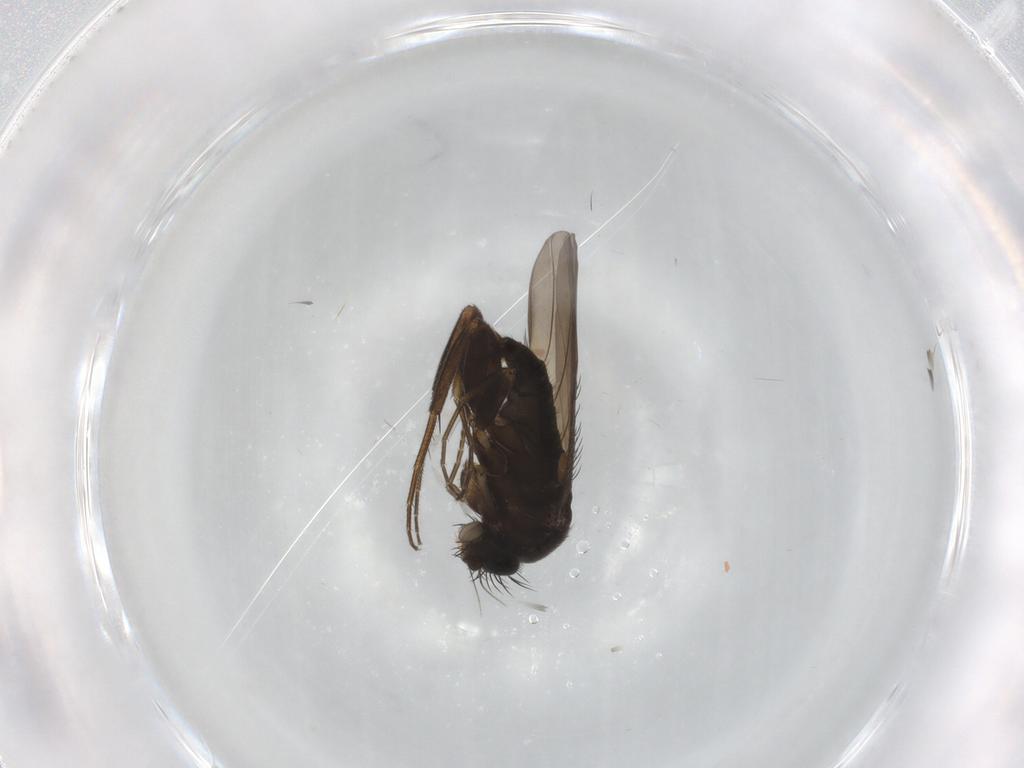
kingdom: Animalia
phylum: Arthropoda
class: Insecta
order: Diptera
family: Phoridae
